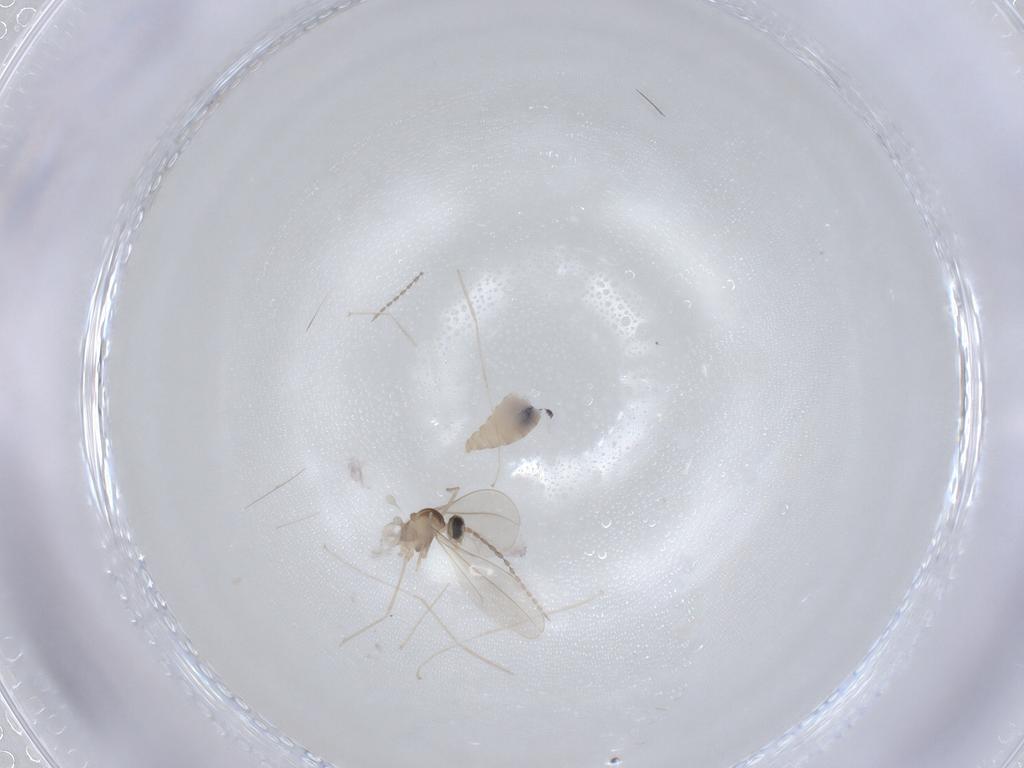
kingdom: Animalia
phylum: Arthropoda
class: Insecta
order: Diptera
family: Cecidomyiidae
